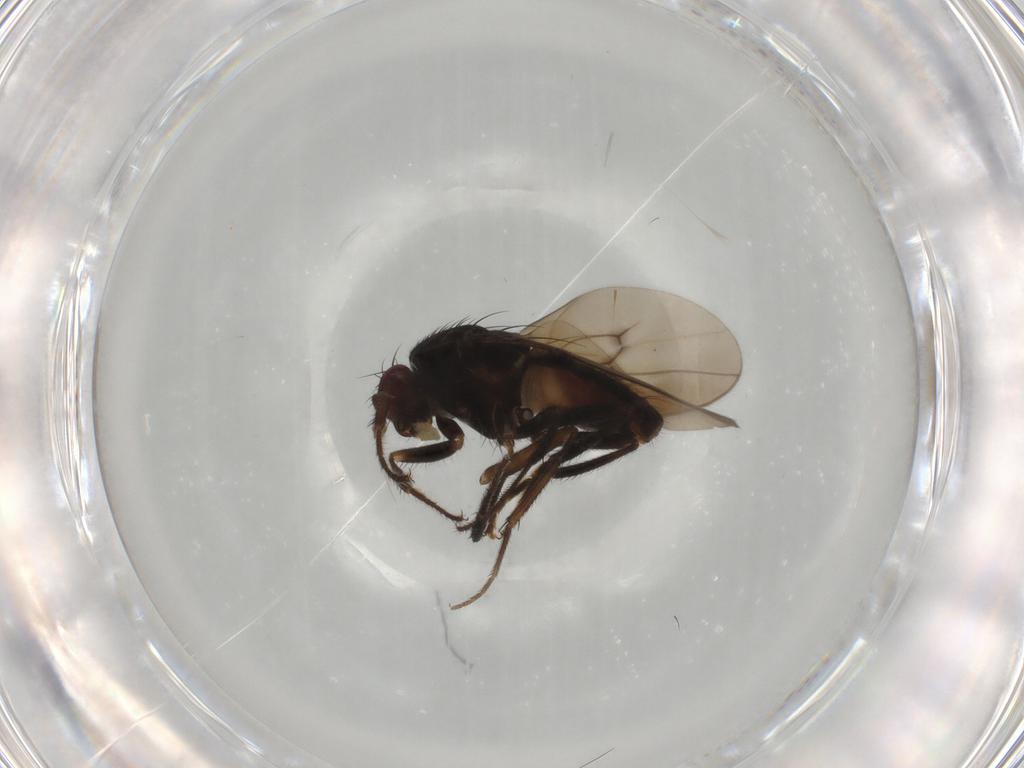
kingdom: Animalia
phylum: Arthropoda
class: Insecta
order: Diptera
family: Sphaeroceridae
